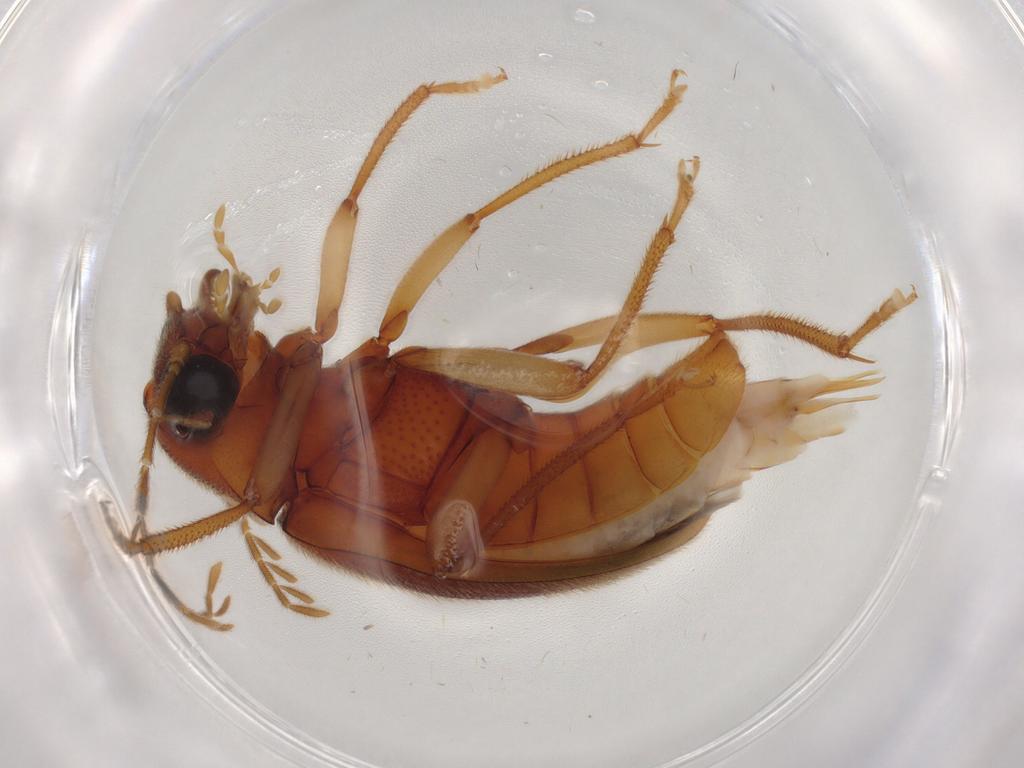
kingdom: Animalia
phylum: Arthropoda
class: Insecta
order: Coleoptera
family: Ptilodactylidae
